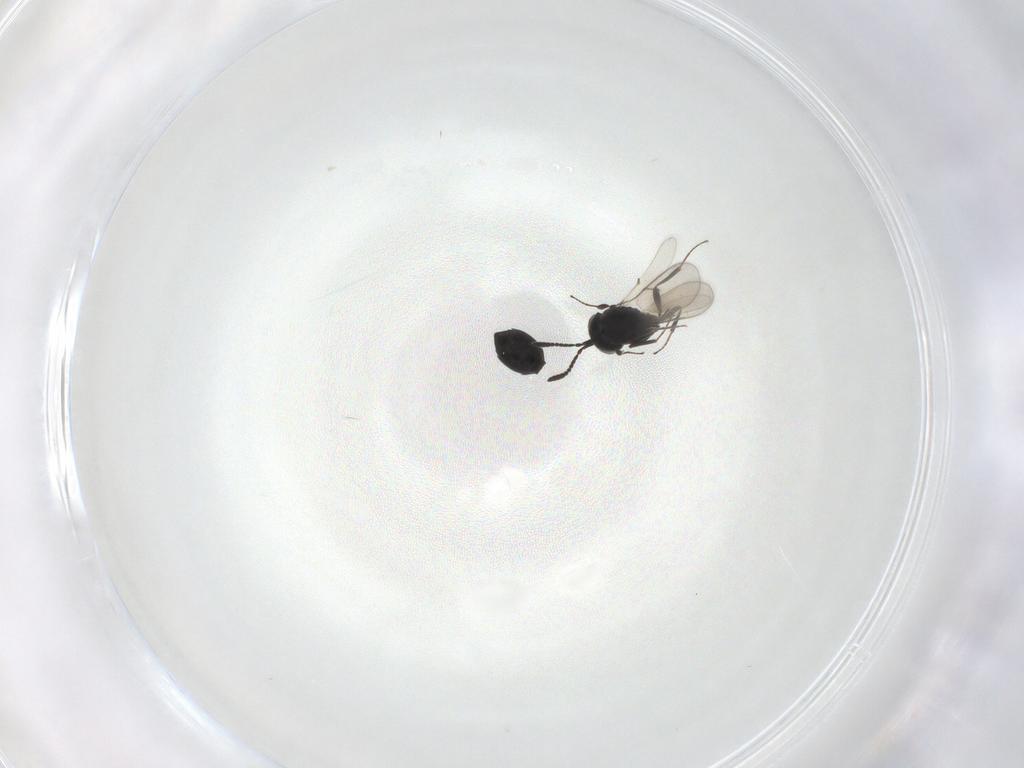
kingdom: Animalia
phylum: Arthropoda
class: Insecta
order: Hymenoptera
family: Scelionidae
